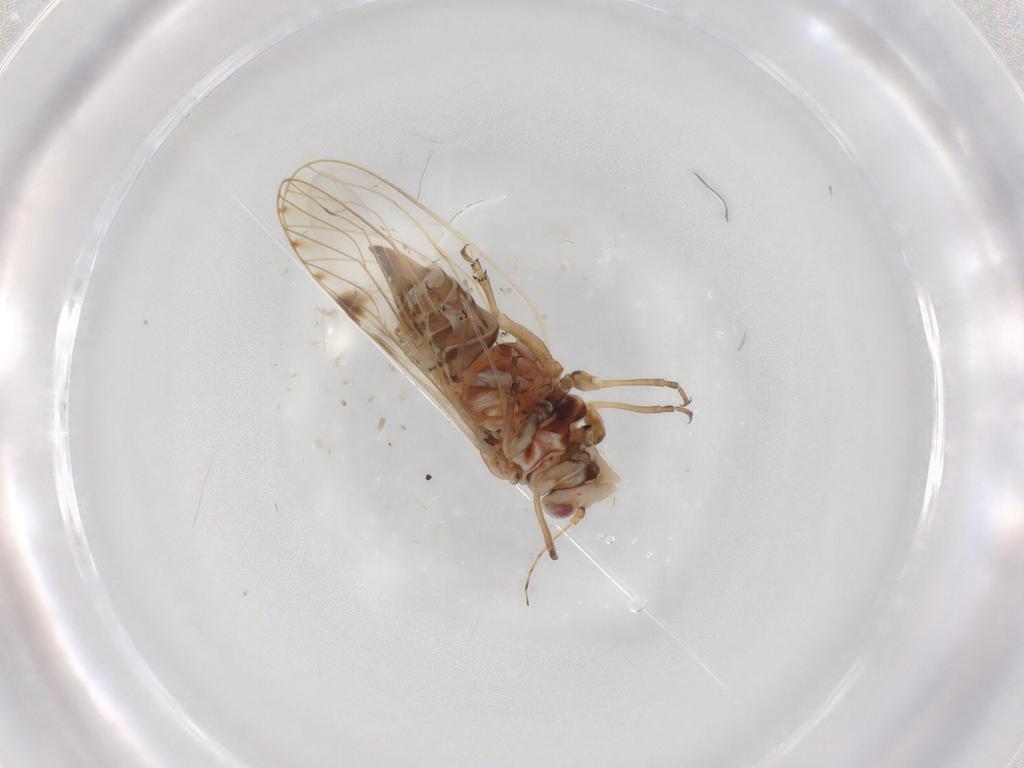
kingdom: Animalia
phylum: Arthropoda
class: Insecta
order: Hemiptera
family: Psylloidea_incertae_sedis
